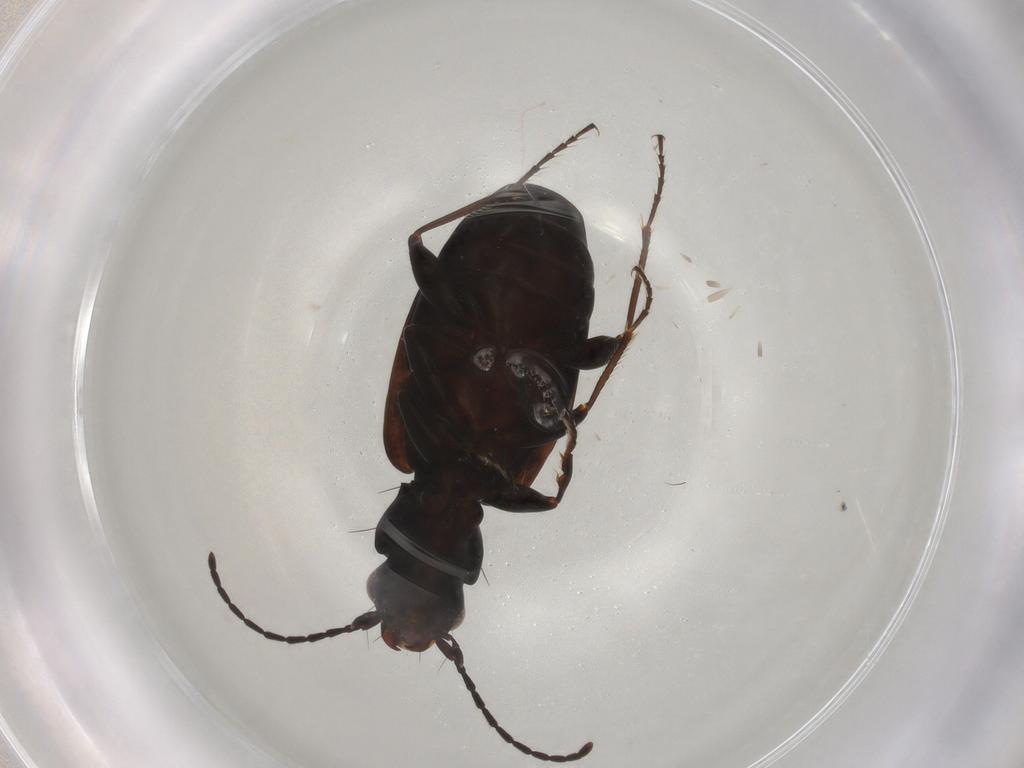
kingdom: Animalia
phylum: Arthropoda
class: Insecta
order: Coleoptera
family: Carabidae
